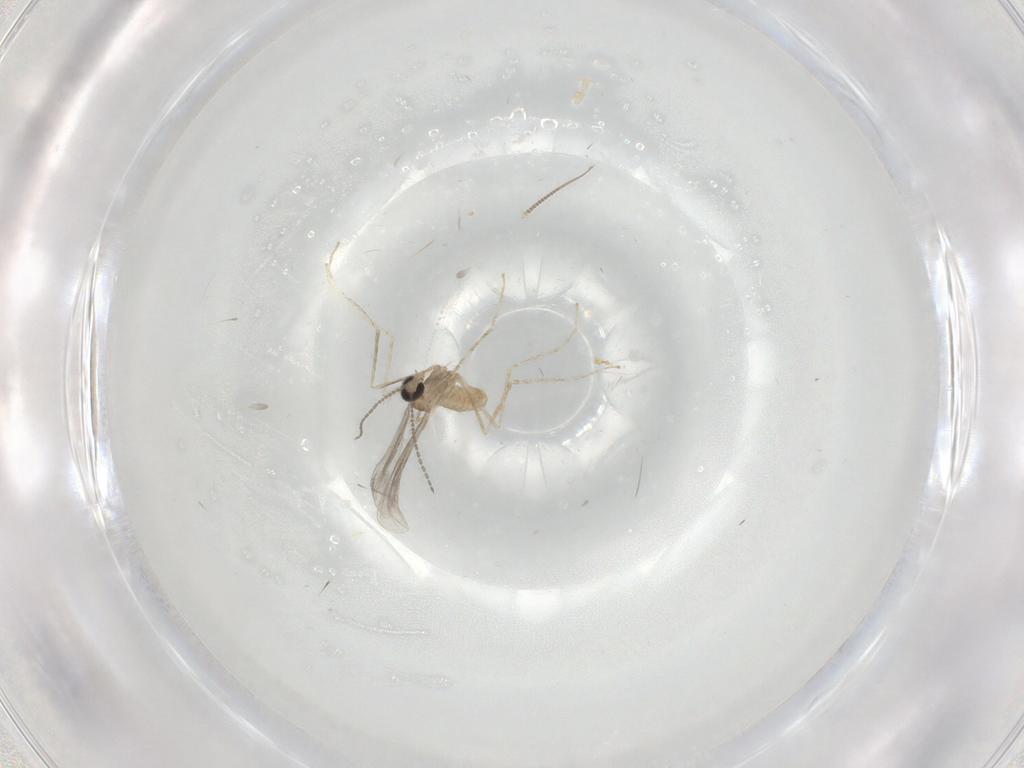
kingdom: Animalia
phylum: Arthropoda
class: Insecta
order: Diptera
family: Cecidomyiidae
